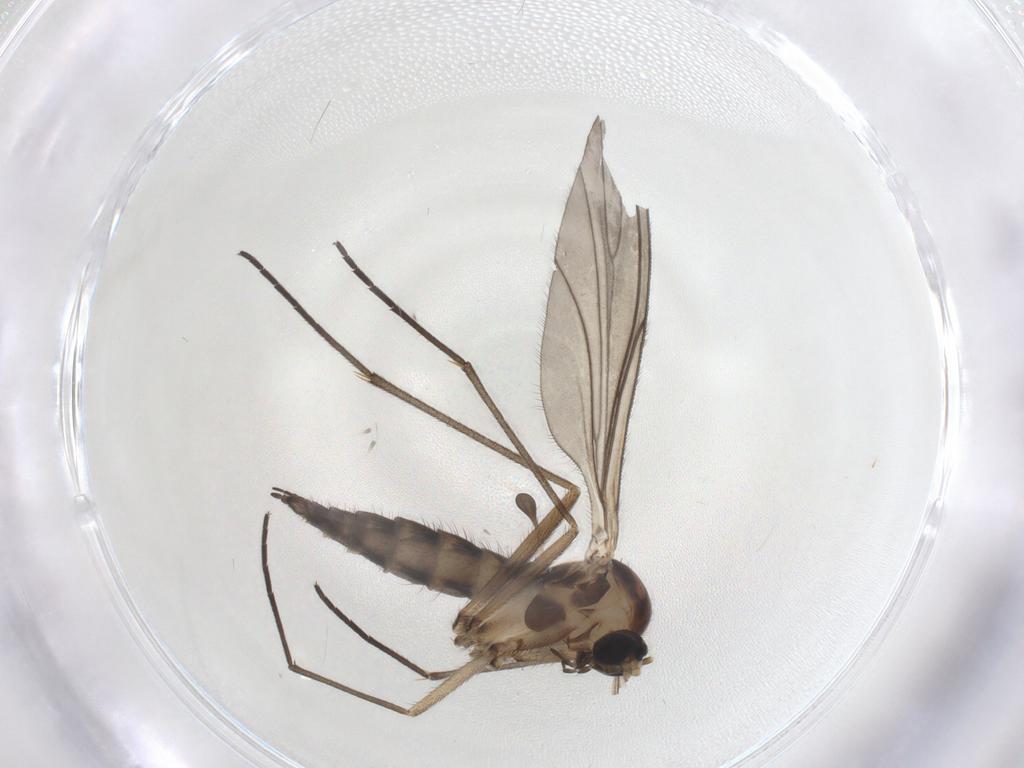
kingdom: Animalia
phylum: Arthropoda
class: Insecta
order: Diptera
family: Sciaridae
